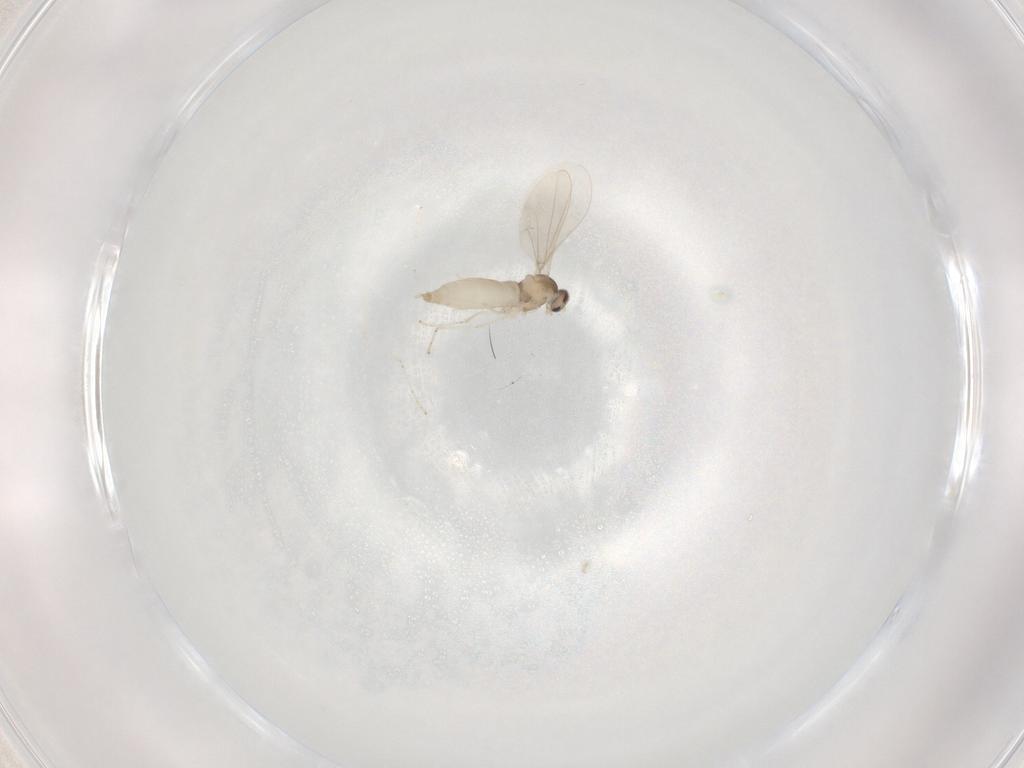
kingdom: Animalia
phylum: Arthropoda
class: Insecta
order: Diptera
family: Cecidomyiidae
